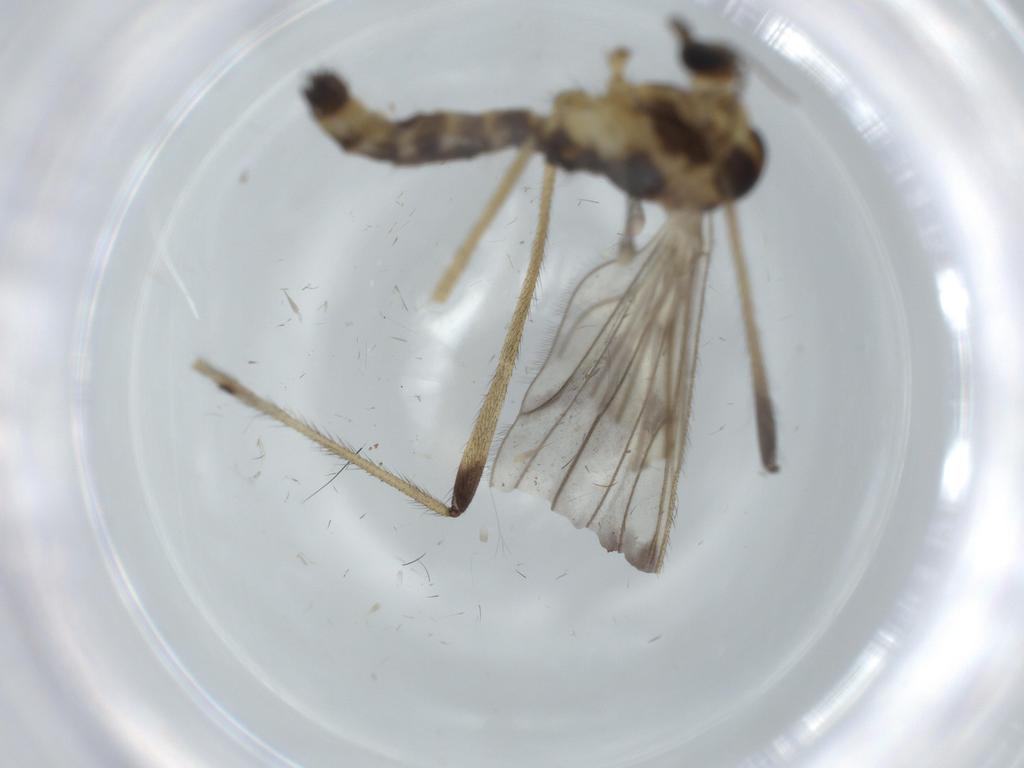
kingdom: Animalia
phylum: Arthropoda
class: Insecta
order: Diptera
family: Limoniidae
